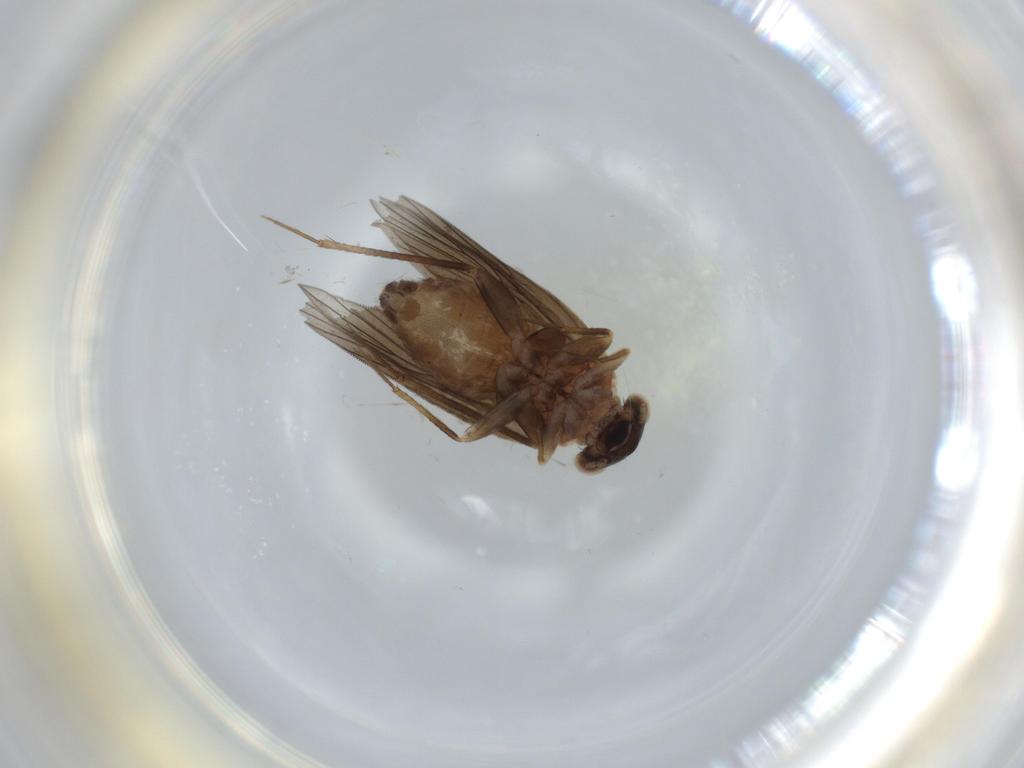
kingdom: Animalia
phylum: Arthropoda
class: Insecta
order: Psocodea
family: Lepidopsocidae
